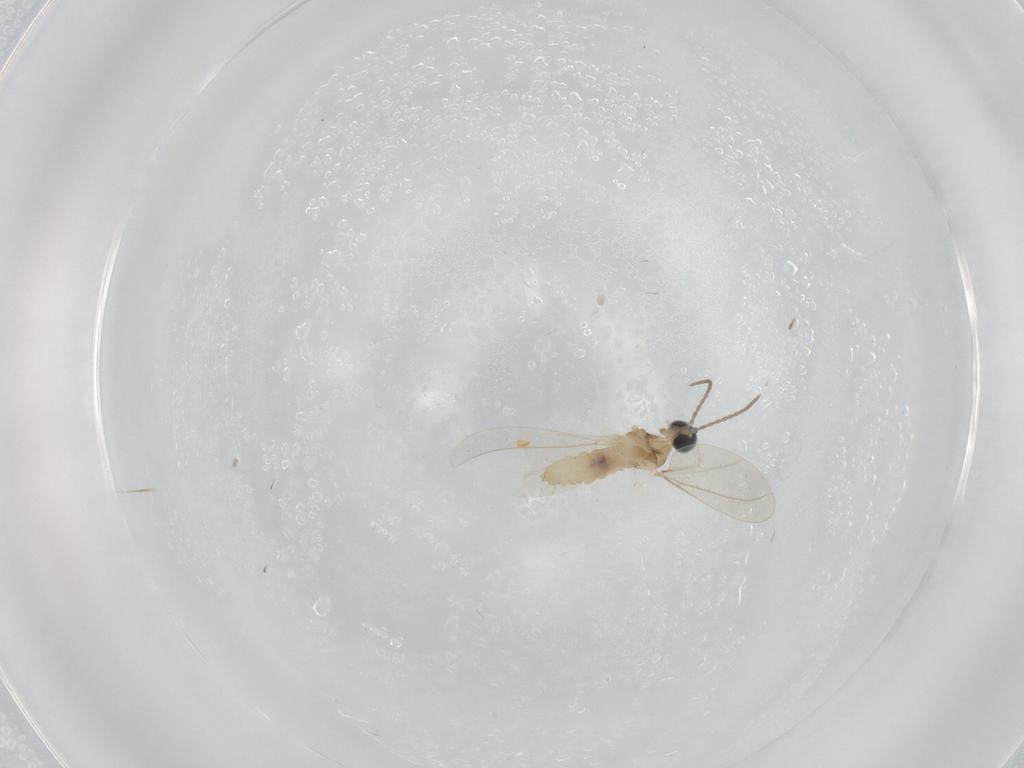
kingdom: Animalia
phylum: Arthropoda
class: Insecta
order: Diptera
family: Cecidomyiidae
